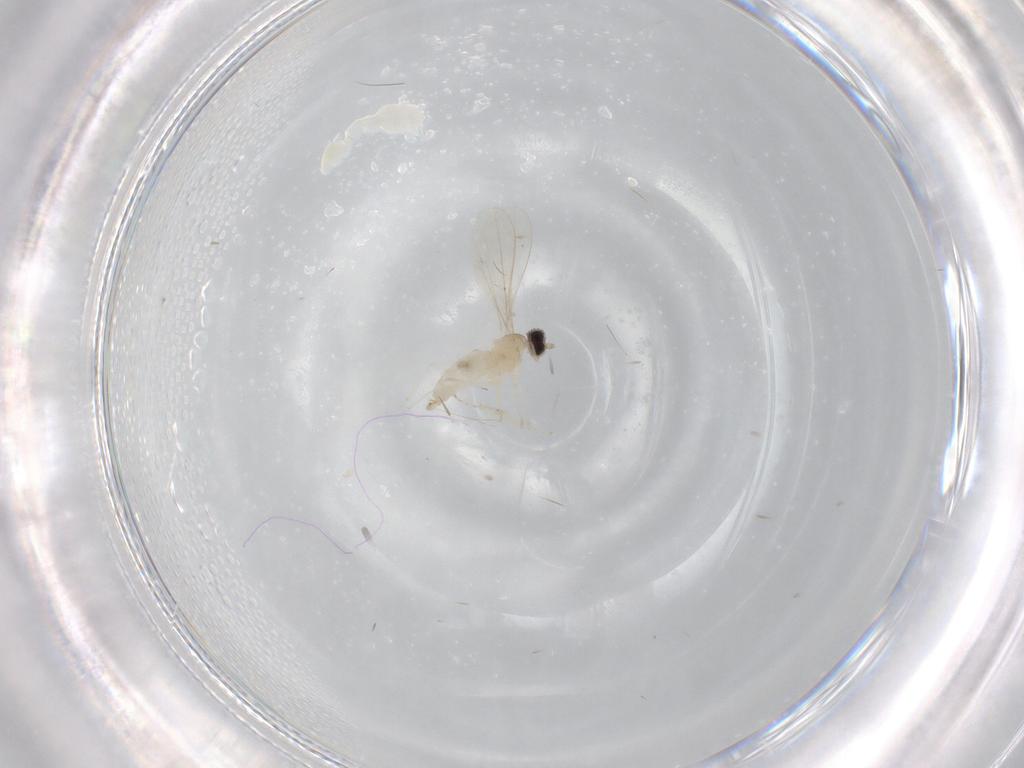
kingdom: Animalia
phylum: Arthropoda
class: Insecta
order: Diptera
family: Cecidomyiidae
